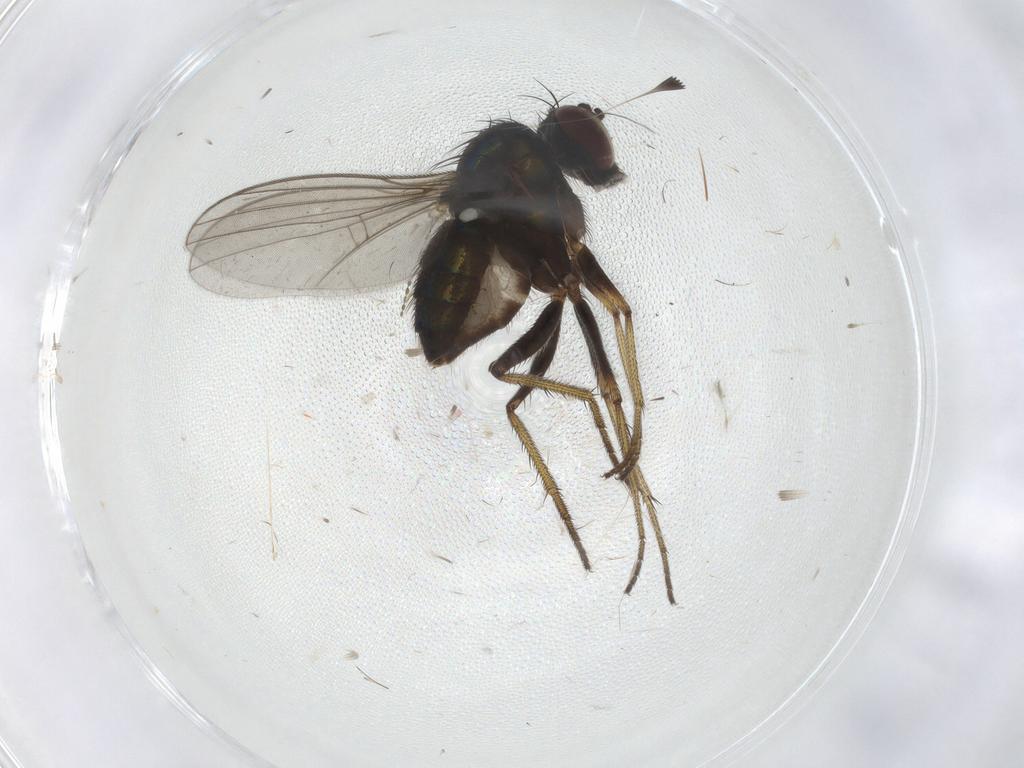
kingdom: Animalia
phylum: Arthropoda
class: Insecta
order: Diptera
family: Dolichopodidae
